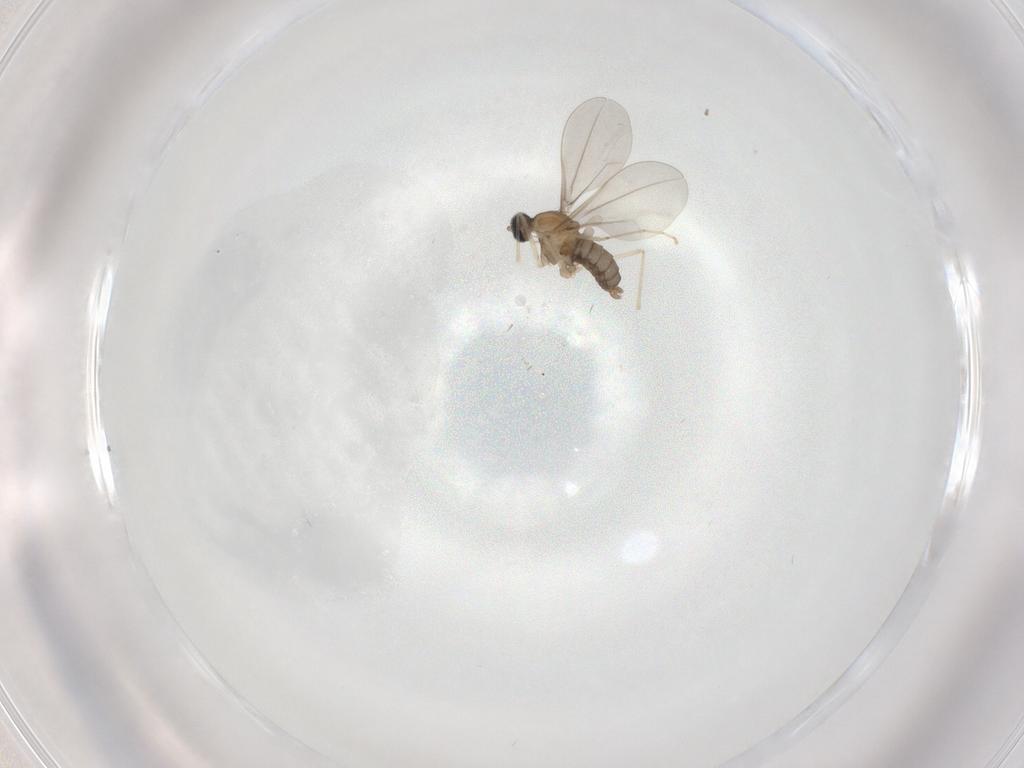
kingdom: Animalia
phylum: Arthropoda
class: Insecta
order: Diptera
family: Cecidomyiidae
